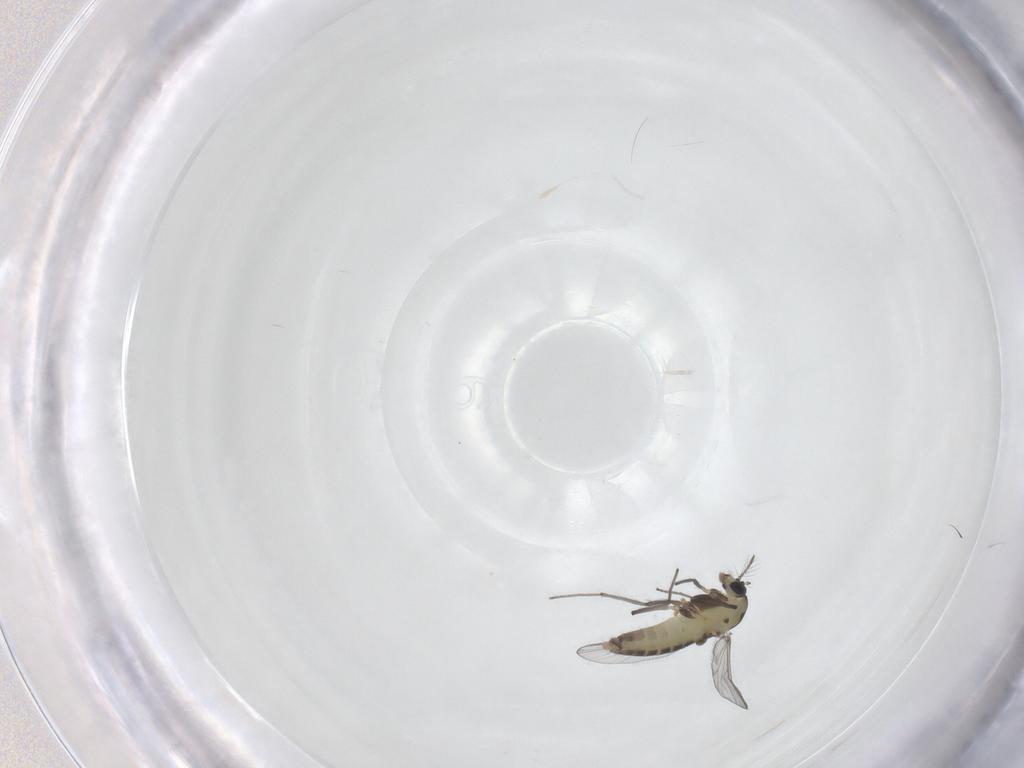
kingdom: Animalia
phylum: Arthropoda
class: Insecta
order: Diptera
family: Chironomidae
